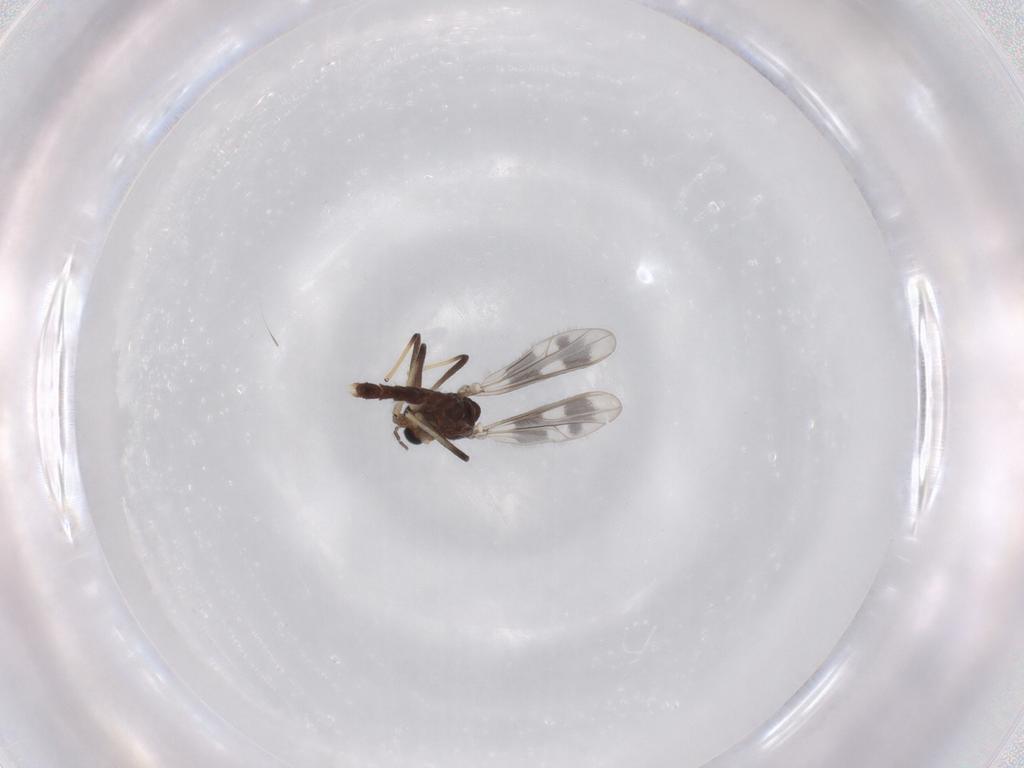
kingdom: Animalia
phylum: Arthropoda
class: Insecta
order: Diptera
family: Chironomidae
